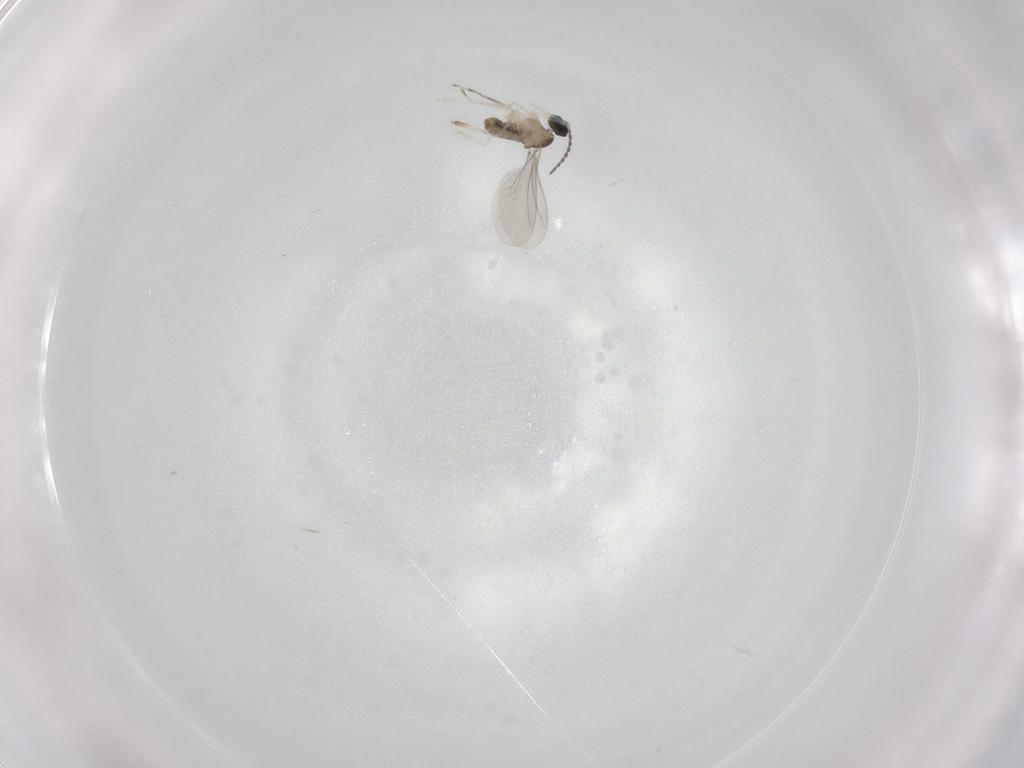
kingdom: Animalia
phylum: Arthropoda
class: Insecta
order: Diptera
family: Cecidomyiidae
